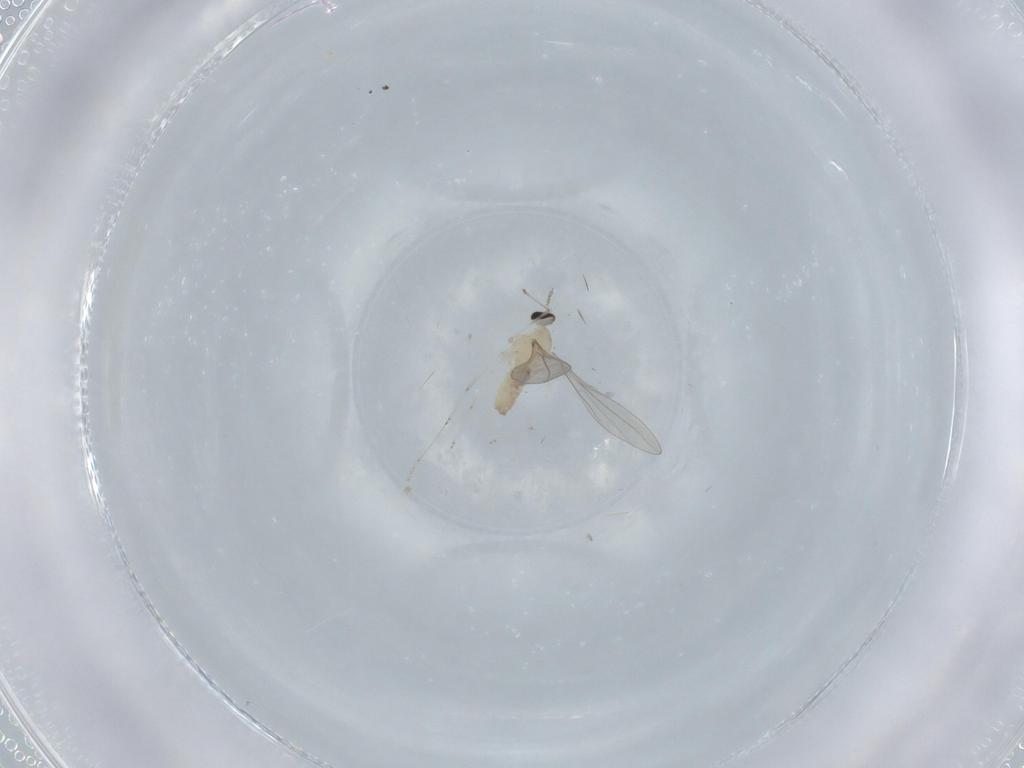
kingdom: Animalia
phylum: Arthropoda
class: Insecta
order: Diptera
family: Cecidomyiidae
